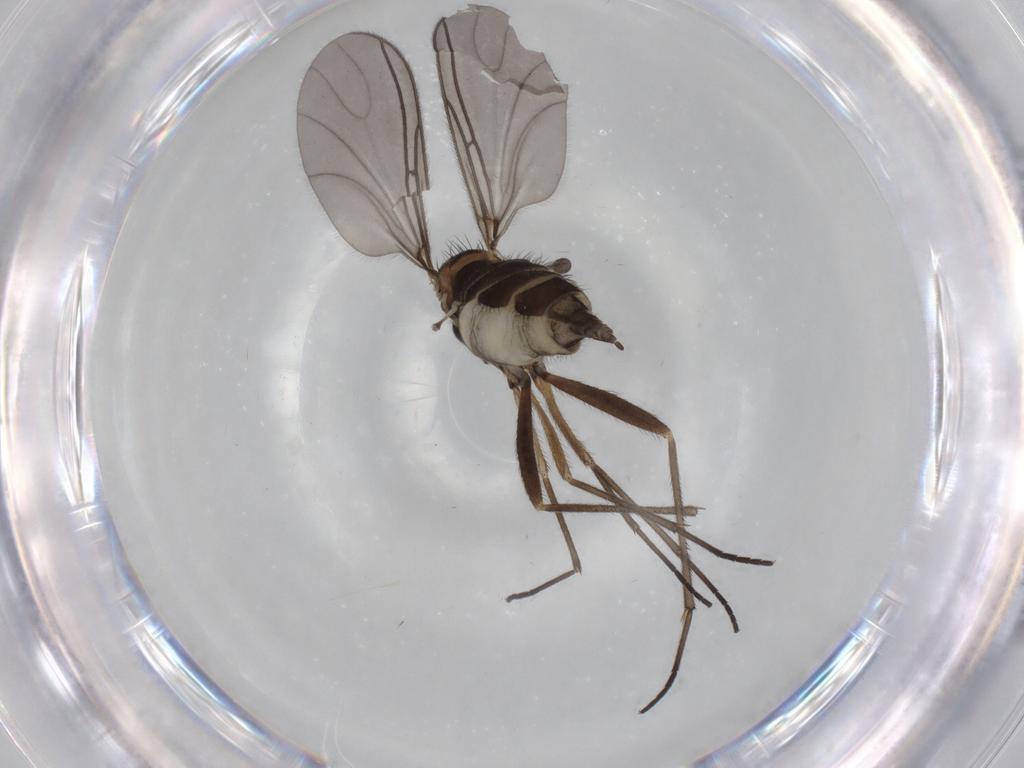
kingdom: Animalia
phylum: Arthropoda
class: Insecta
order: Diptera
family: Sciaridae
